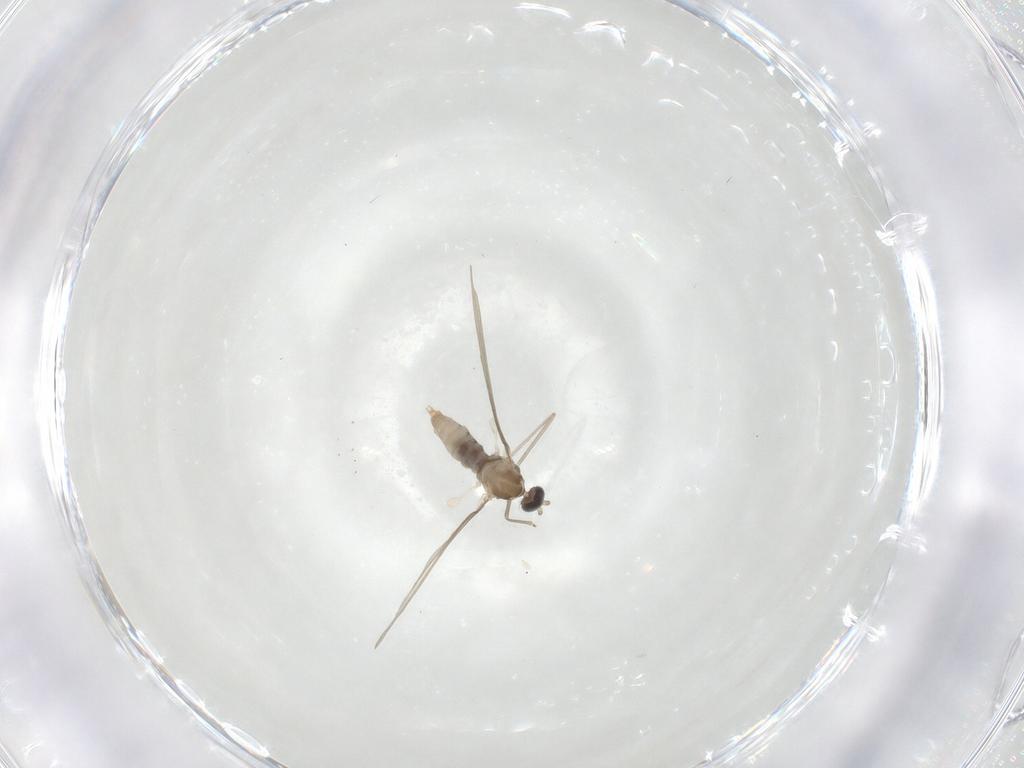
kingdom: Animalia
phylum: Arthropoda
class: Insecta
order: Diptera
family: Cecidomyiidae
